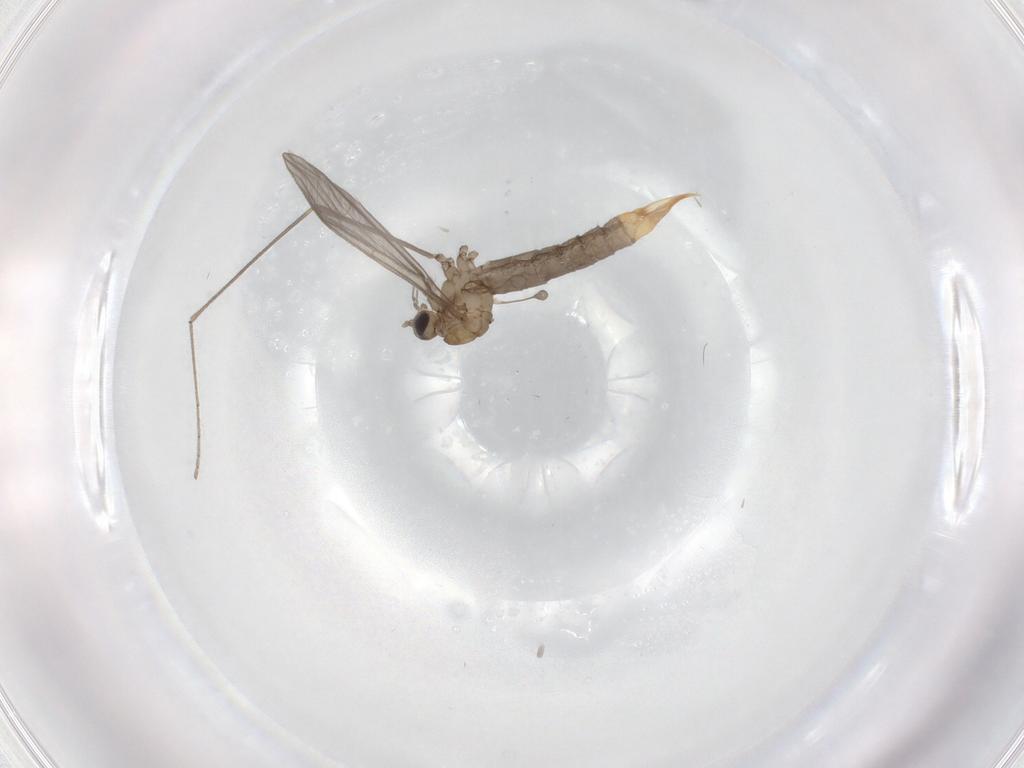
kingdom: Animalia
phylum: Arthropoda
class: Insecta
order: Diptera
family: Limoniidae
